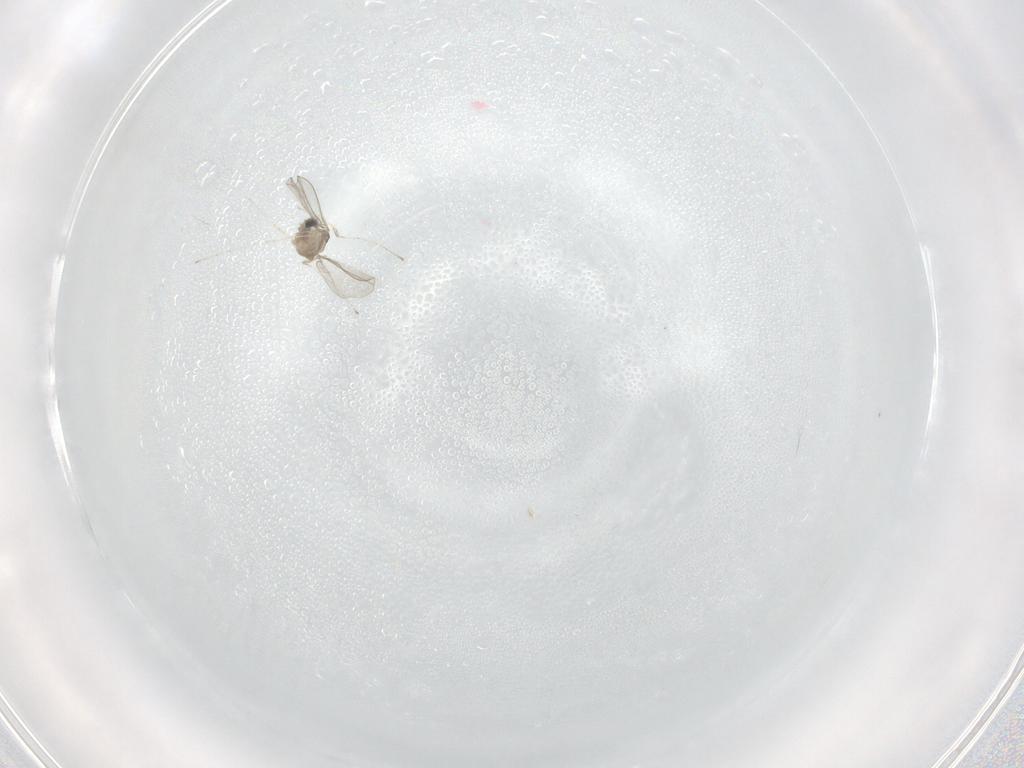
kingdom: Animalia
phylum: Arthropoda
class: Insecta
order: Diptera
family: Cecidomyiidae
